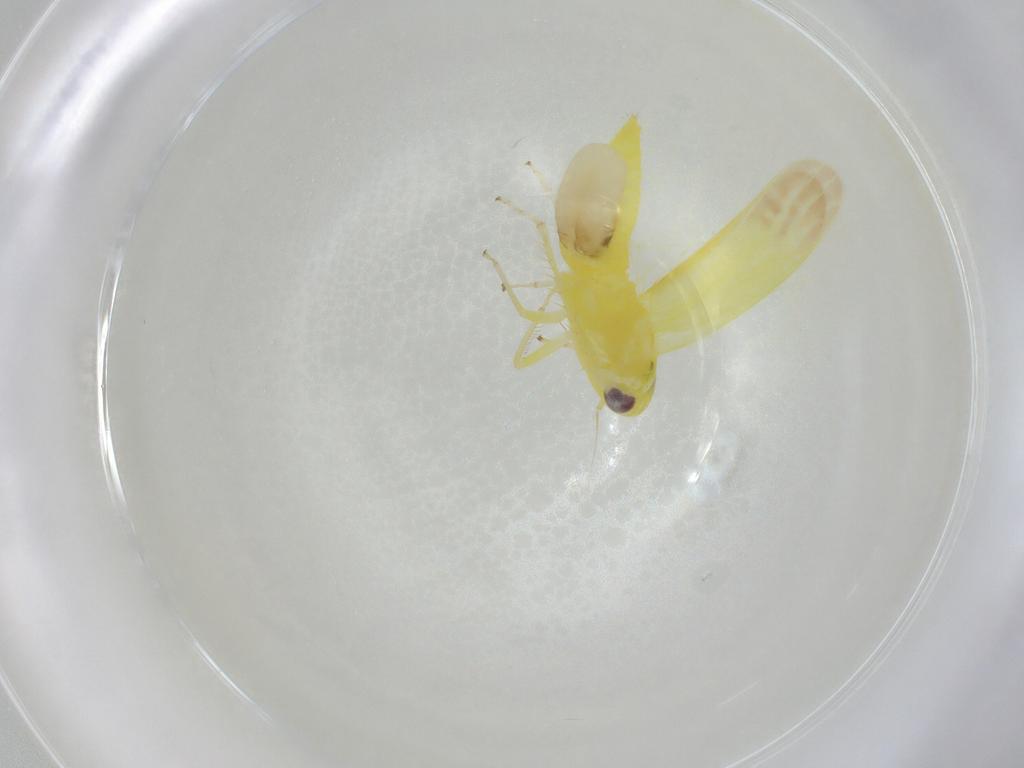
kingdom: Animalia
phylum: Arthropoda
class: Insecta
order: Hemiptera
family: Cicadellidae
